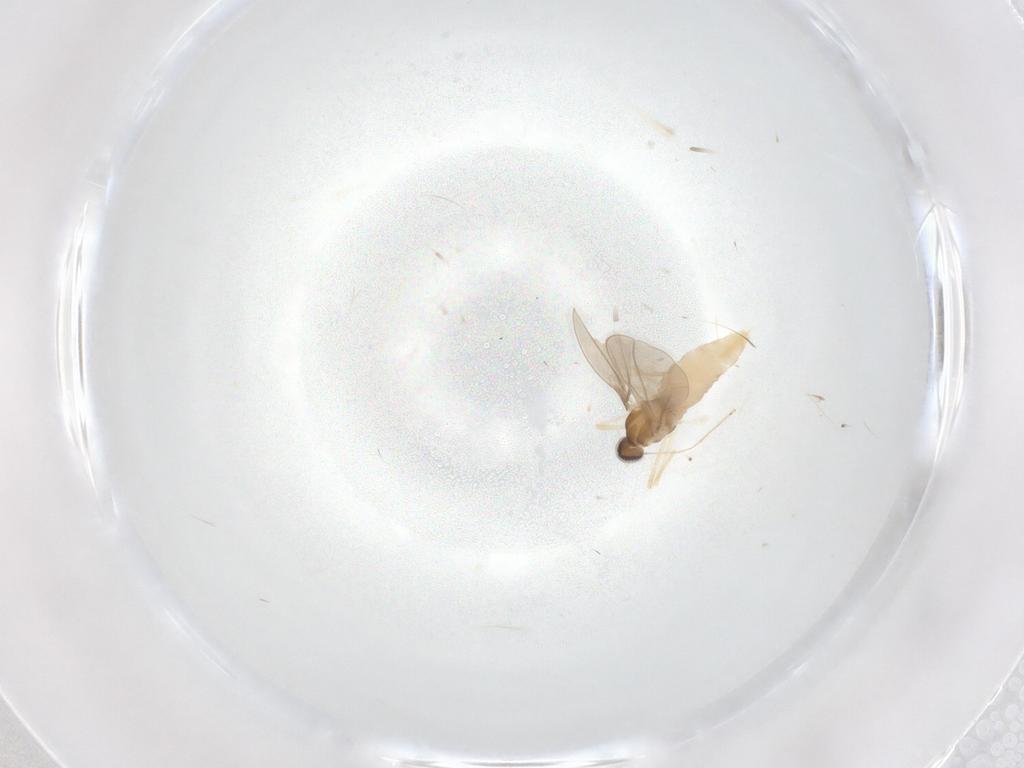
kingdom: Animalia
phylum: Arthropoda
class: Insecta
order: Diptera
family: Cecidomyiidae
